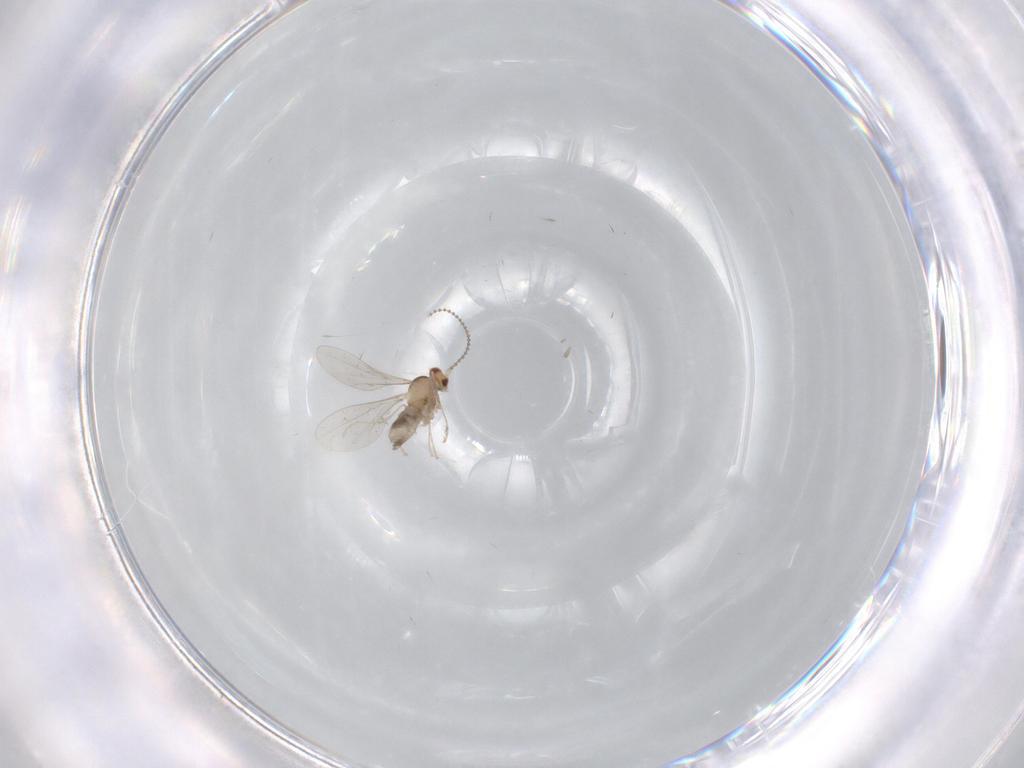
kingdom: Animalia
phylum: Arthropoda
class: Insecta
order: Diptera
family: Cecidomyiidae
